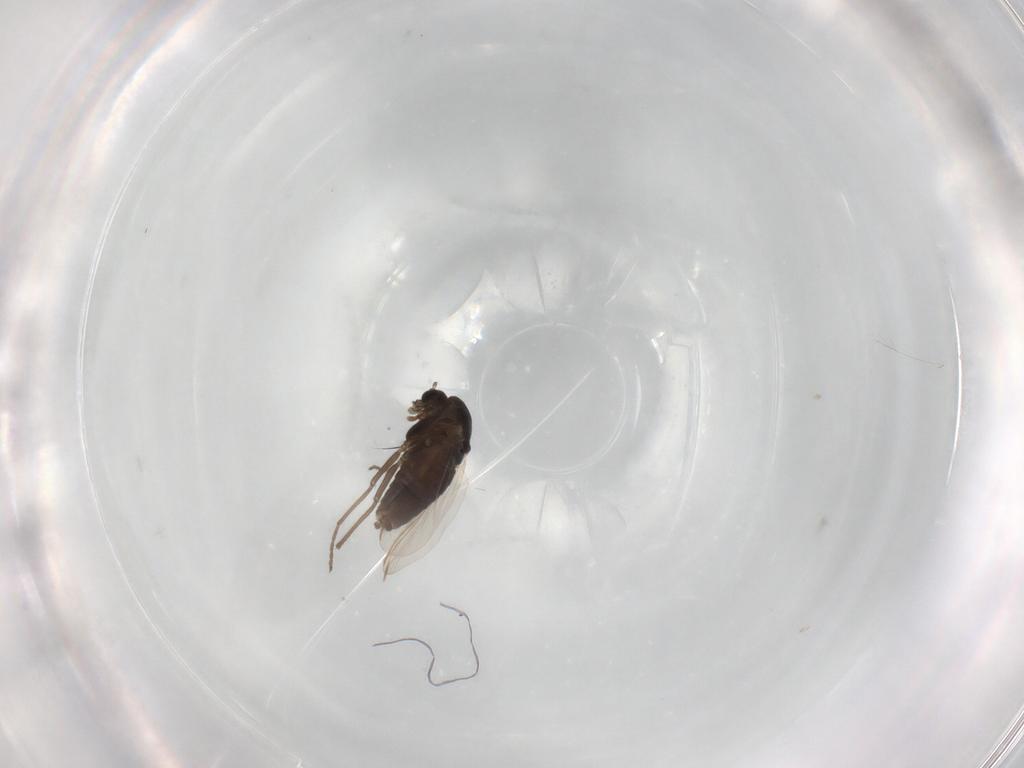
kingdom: Animalia
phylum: Arthropoda
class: Insecta
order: Diptera
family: Chironomidae
